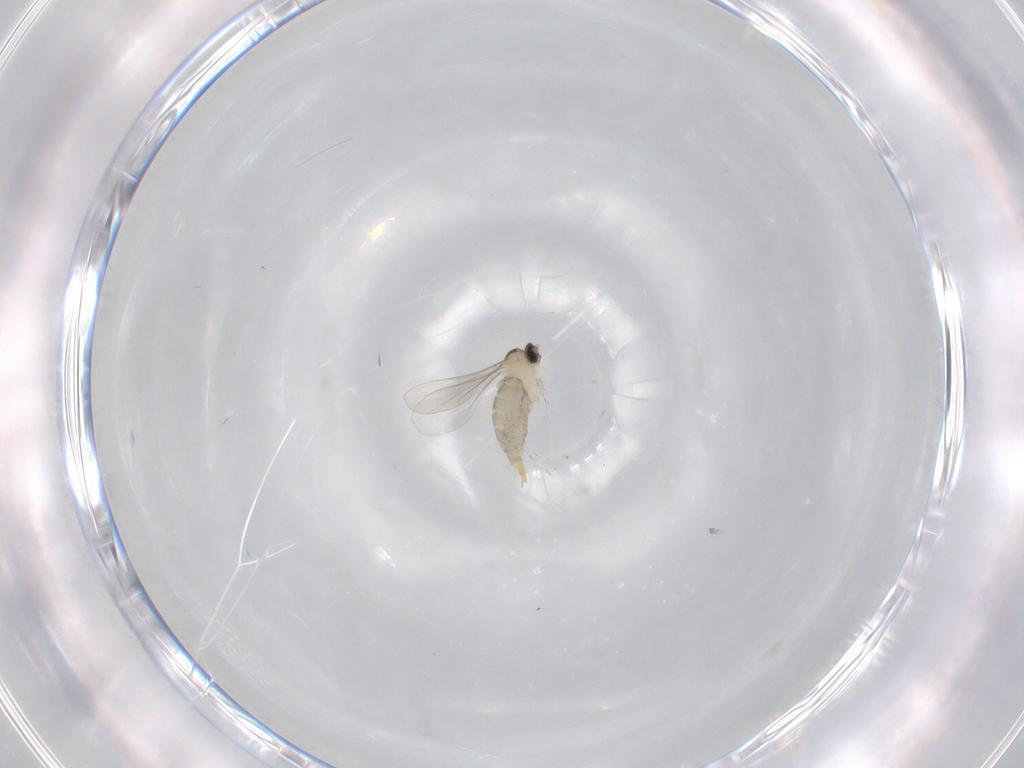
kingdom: Animalia
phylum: Arthropoda
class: Insecta
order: Diptera
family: Chironomidae
